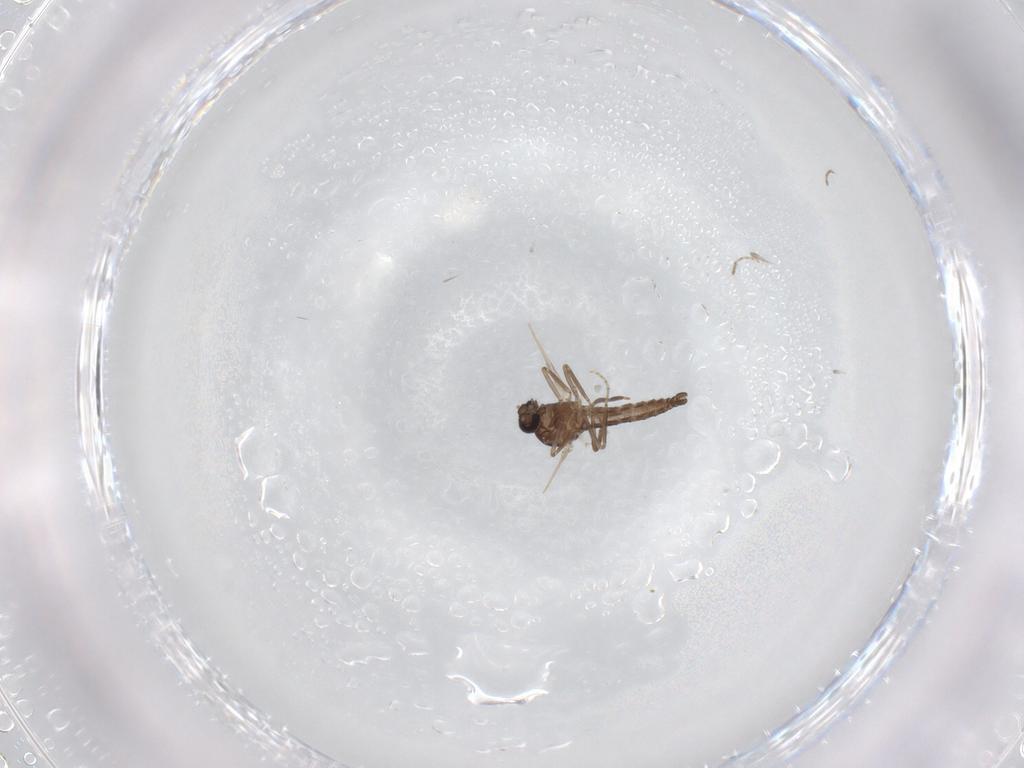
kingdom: Animalia
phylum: Arthropoda
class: Insecta
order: Diptera
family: Ceratopogonidae
